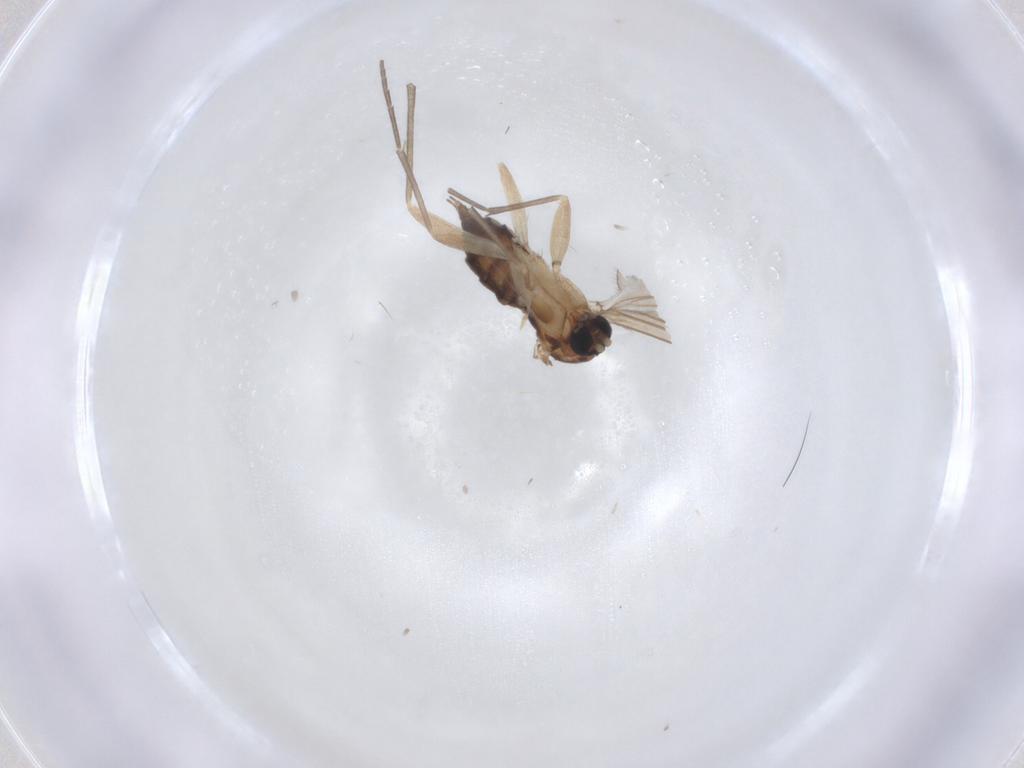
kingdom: Animalia
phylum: Arthropoda
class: Insecta
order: Diptera
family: Sciaridae
